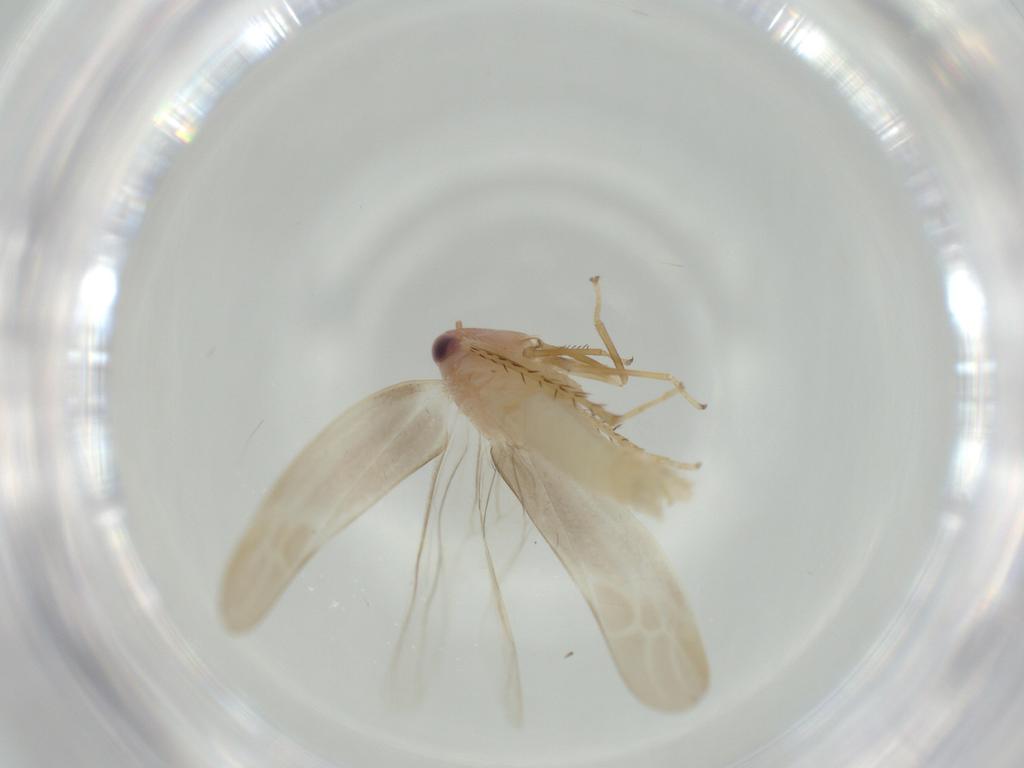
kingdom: Animalia
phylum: Arthropoda
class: Insecta
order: Hemiptera
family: Cicadellidae
